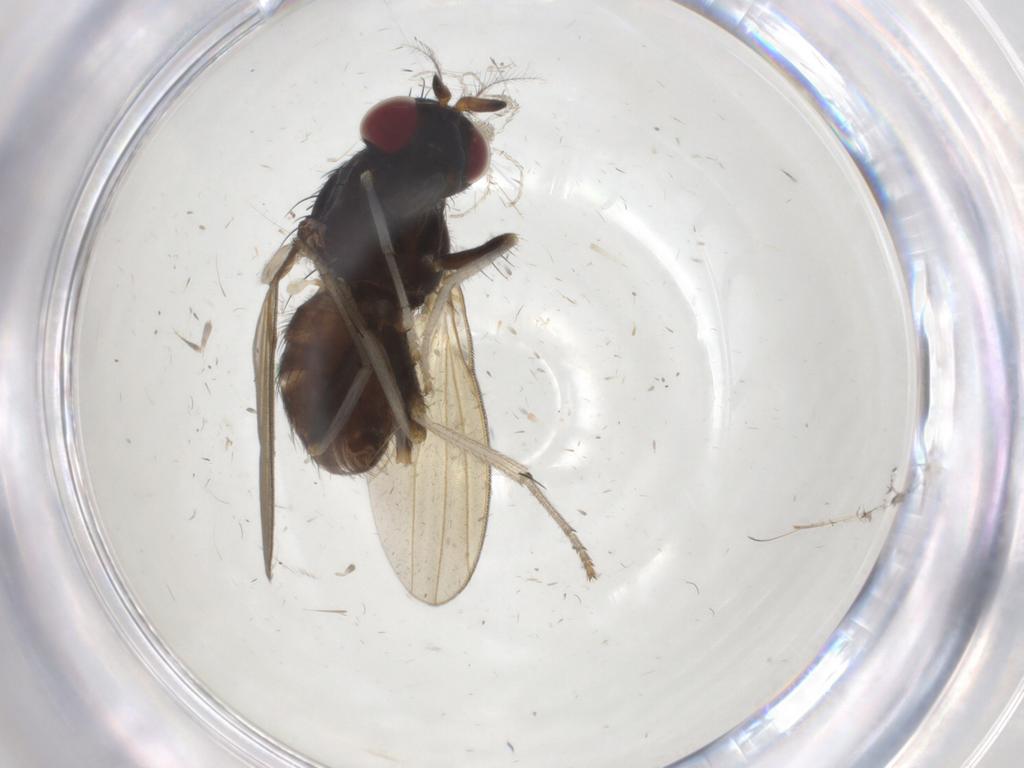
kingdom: Animalia
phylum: Arthropoda
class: Insecta
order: Diptera
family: Lauxaniidae
